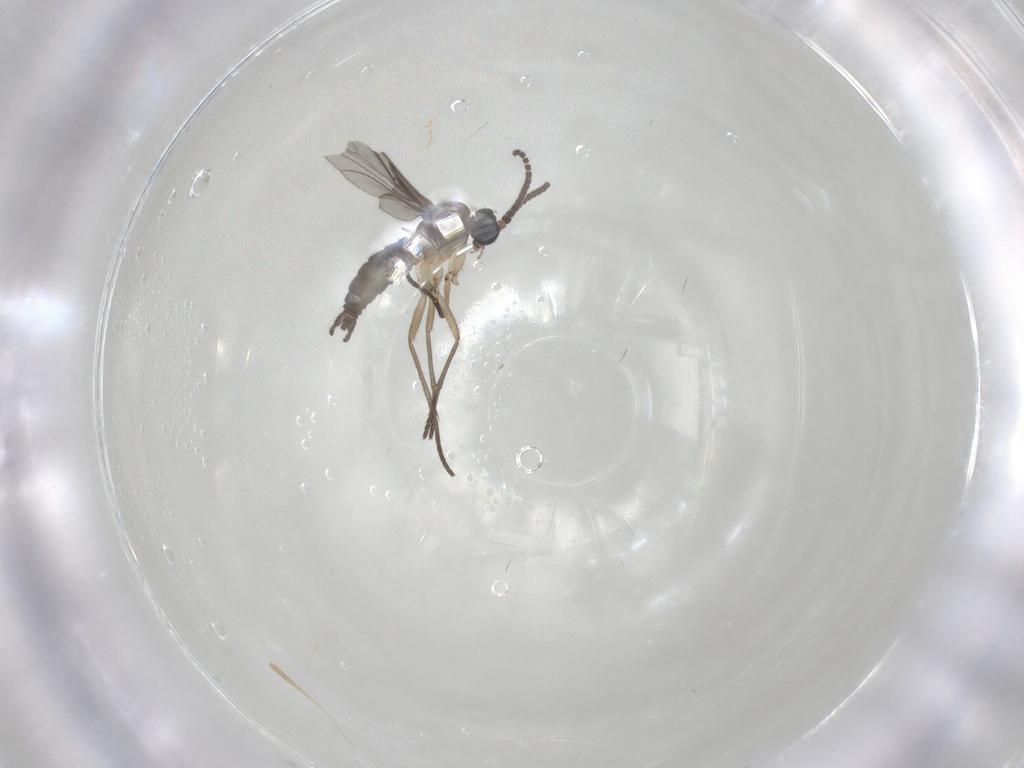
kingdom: Animalia
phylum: Arthropoda
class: Insecta
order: Diptera
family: Sciaridae
